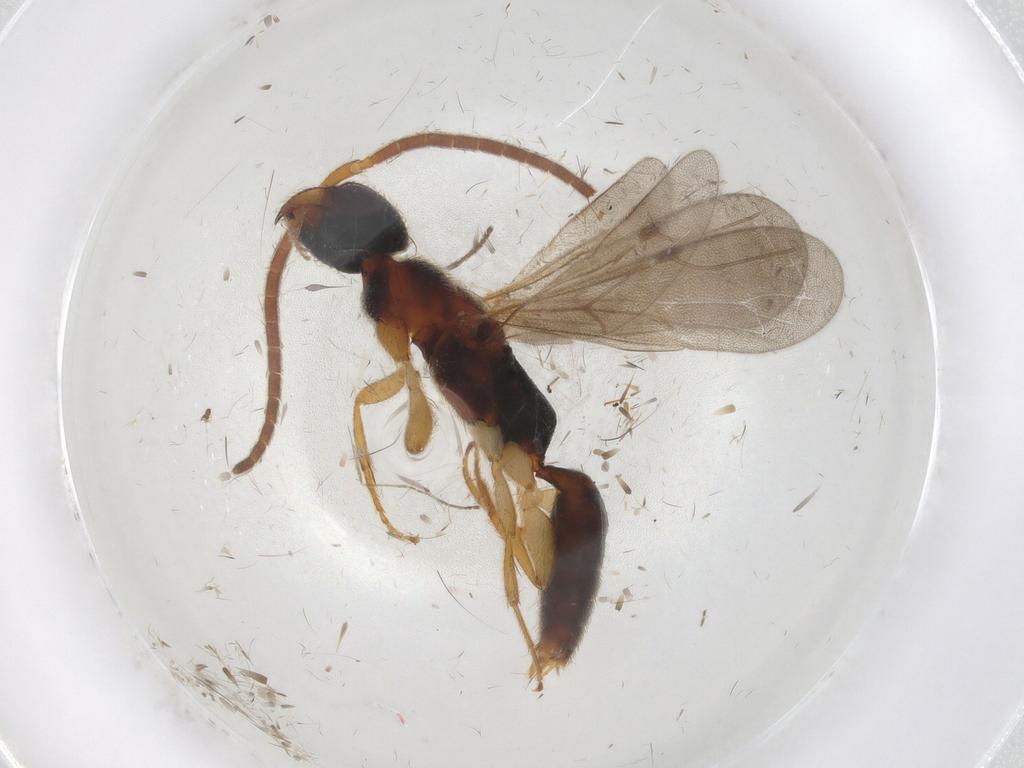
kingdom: Animalia
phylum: Arthropoda
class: Insecta
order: Hymenoptera
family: Bethylidae
